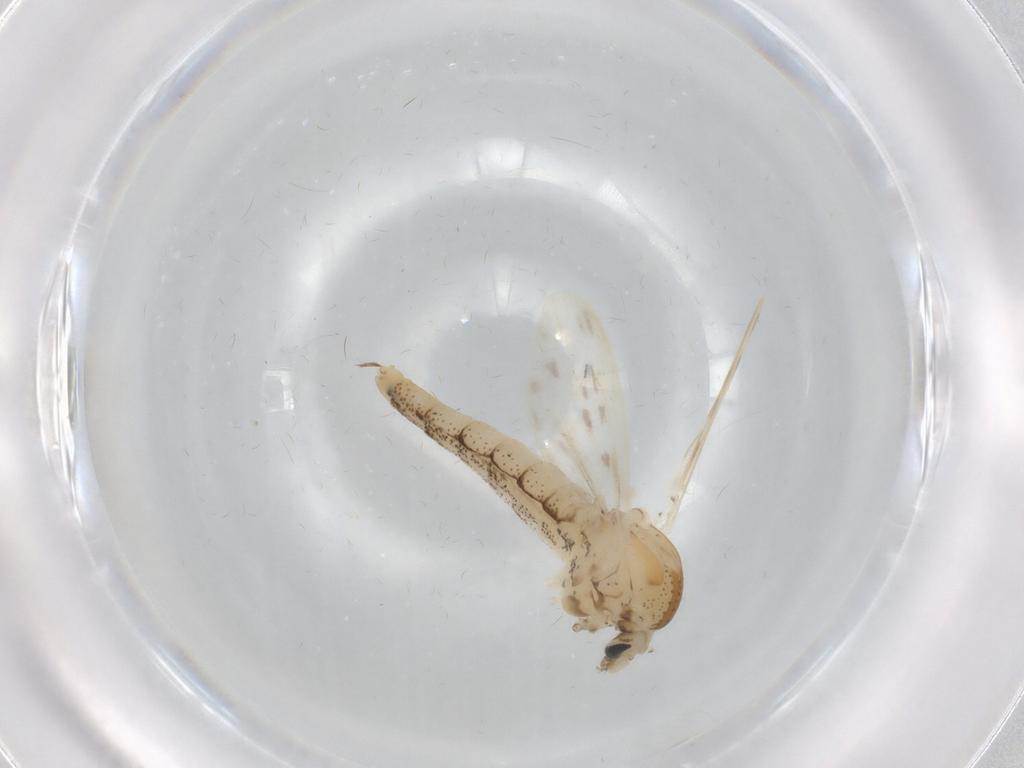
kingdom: Animalia
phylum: Arthropoda
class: Insecta
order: Diptera
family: Chaoboridae
